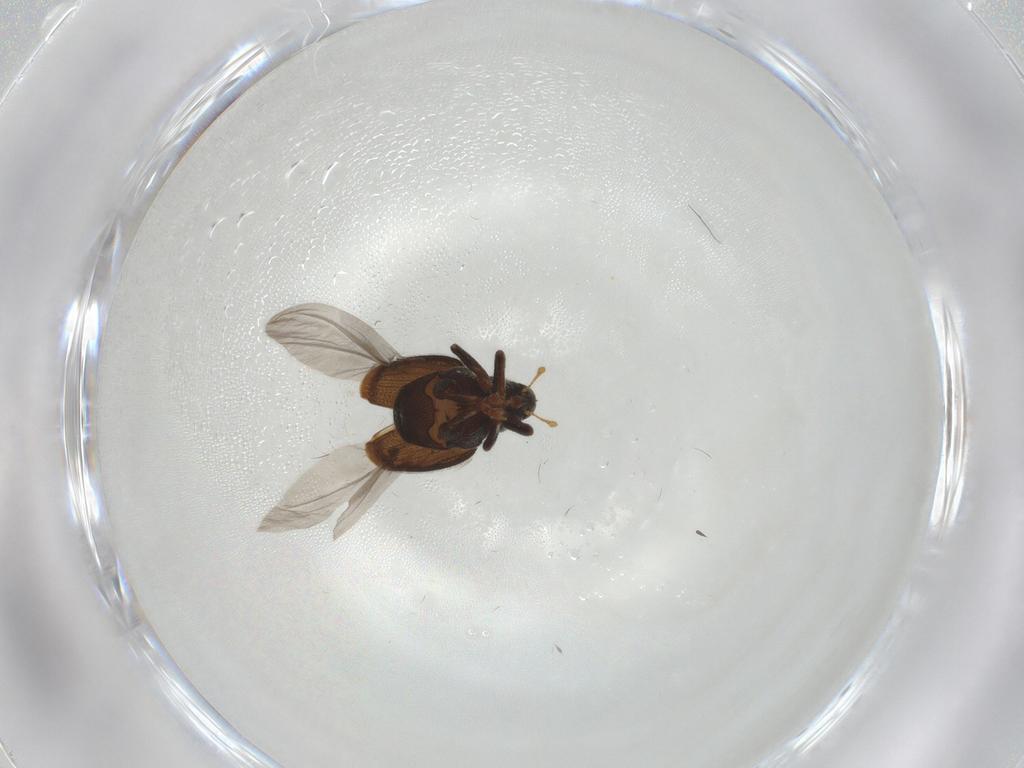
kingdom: Animalia
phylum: Arthropoda
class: Insecta
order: Coleoptera
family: Curculionidae
